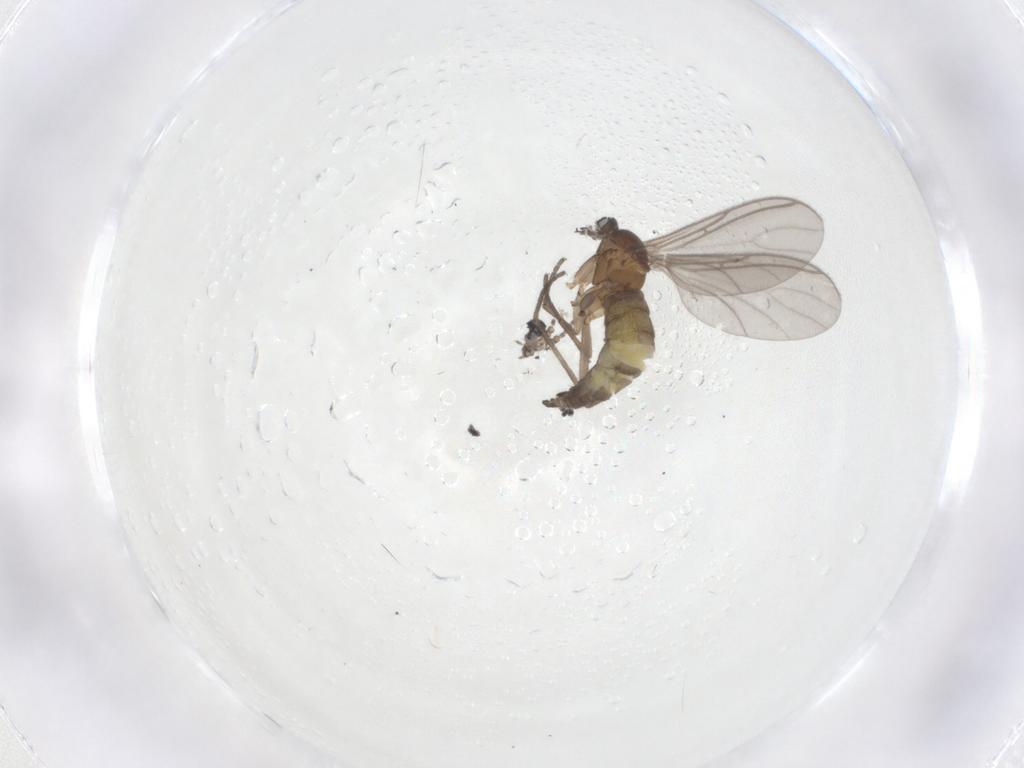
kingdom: Animalia
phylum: Arthropoda
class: Insecta
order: Diptera
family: Sciaridae
